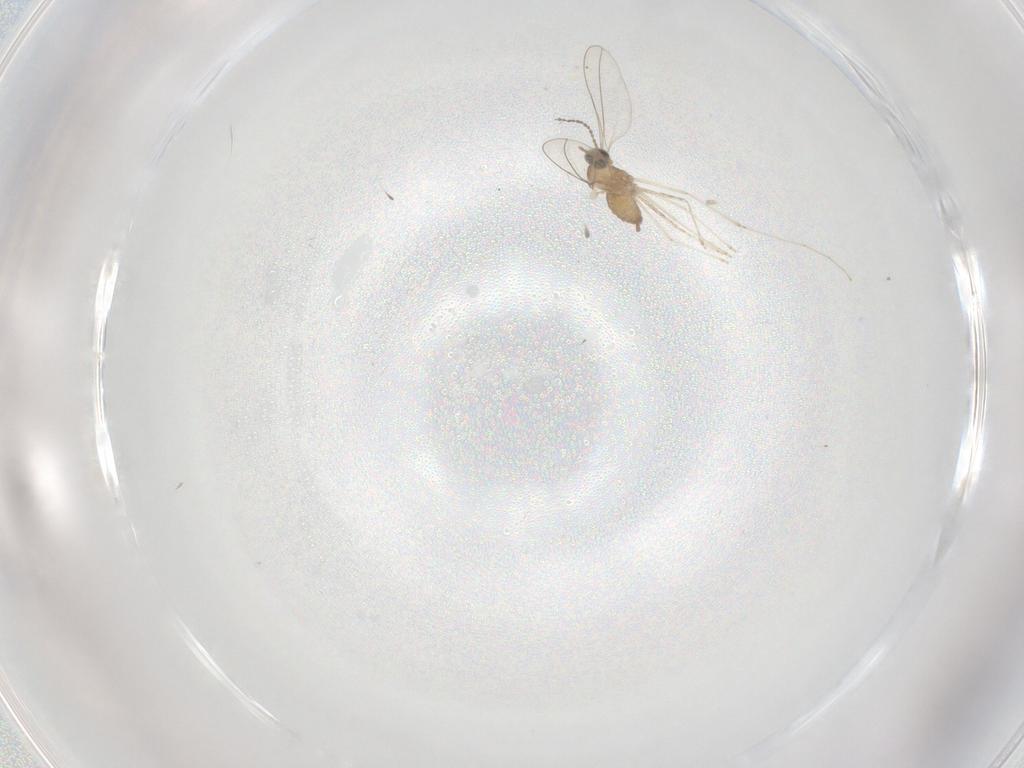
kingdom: Animalia
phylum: Arthropoda
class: Insecta
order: Diptera
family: Cecidomyiidae
